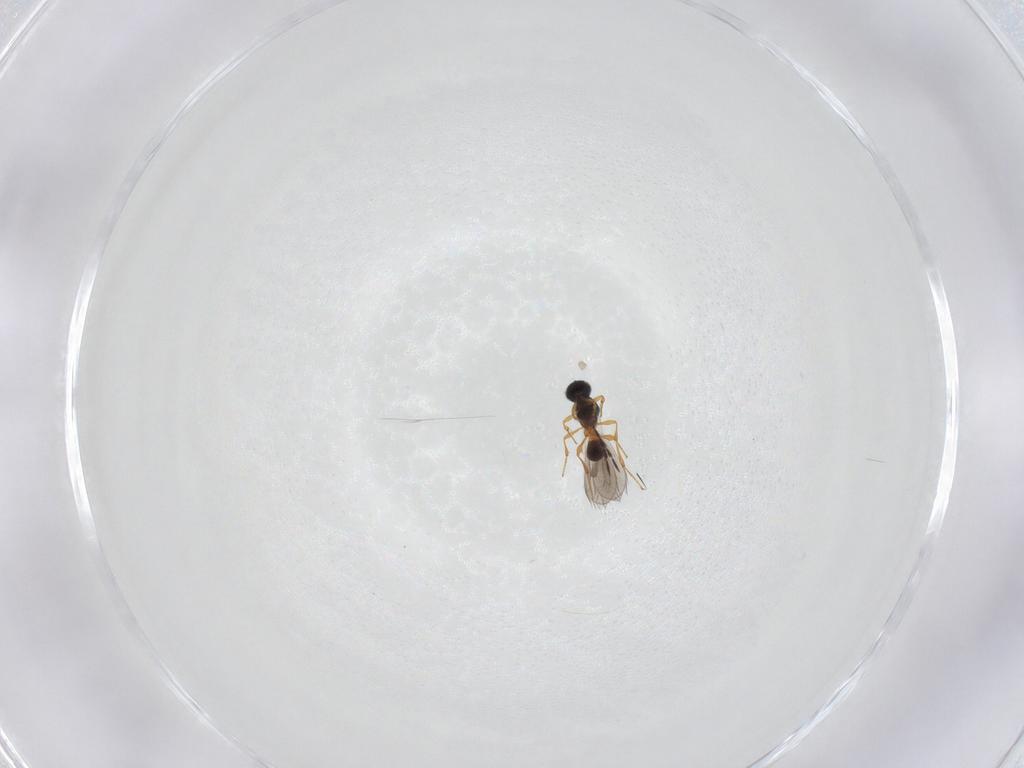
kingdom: Animalia
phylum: Arthropoda
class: Insecta
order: Hymenoptera
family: Platygastridae
